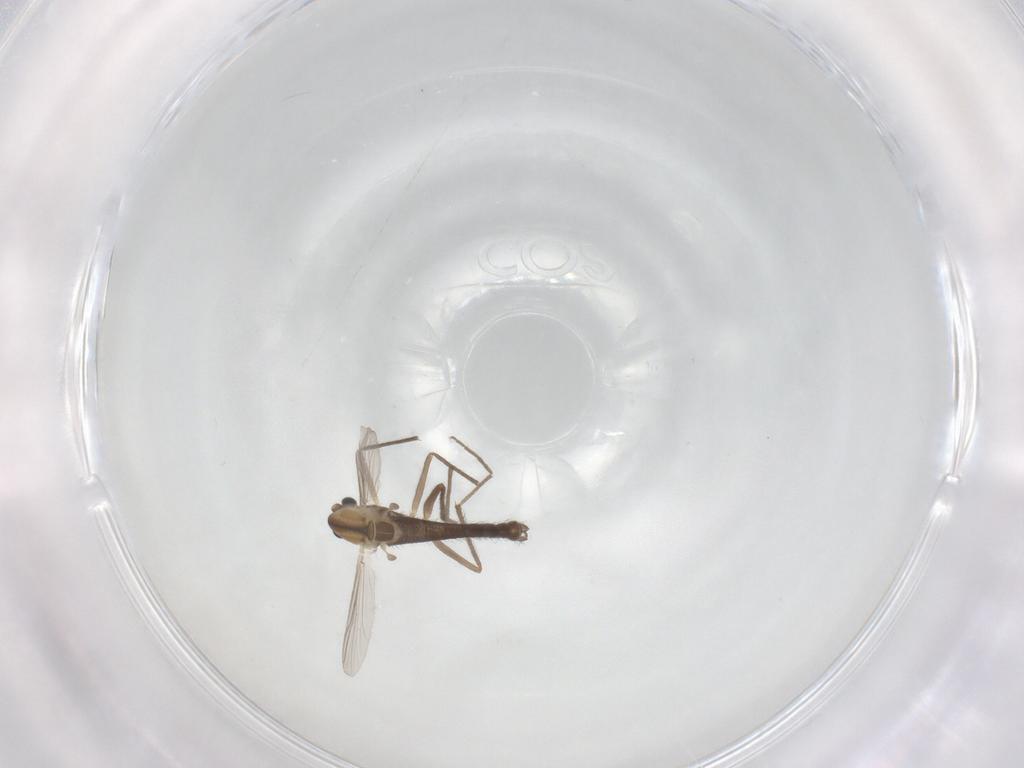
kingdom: Animalia
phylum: Arthropoda
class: Insecta
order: Diptera
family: Chironomidae
